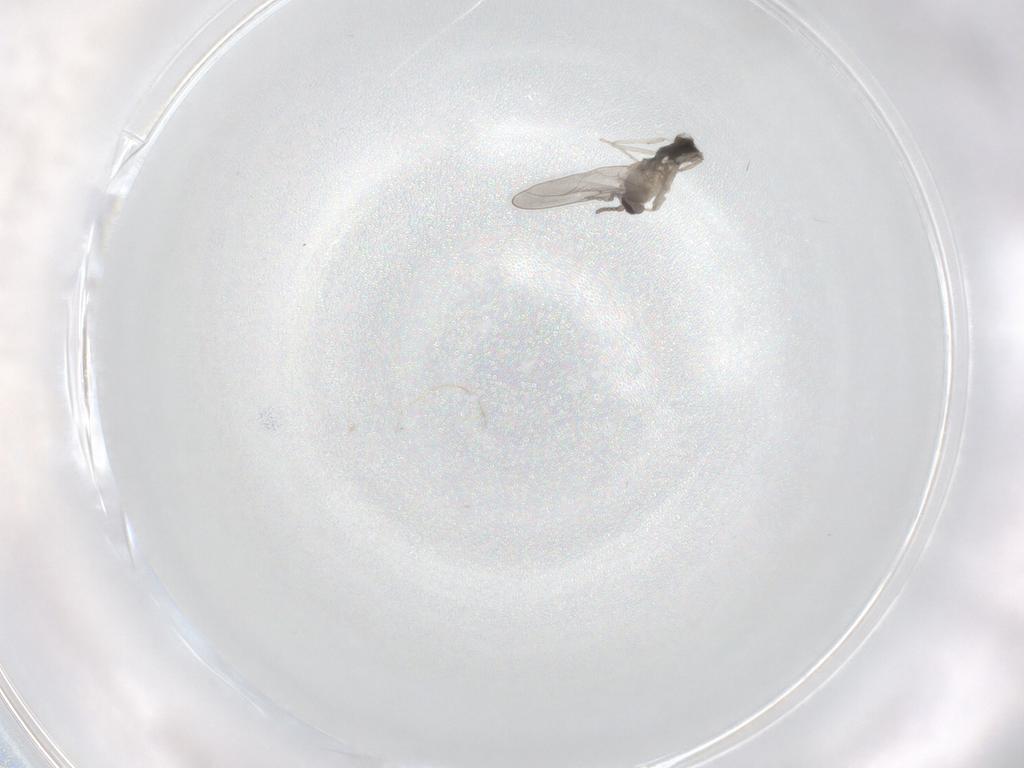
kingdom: Animalia
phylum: Arthropoda
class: Insecta
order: Diptera
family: Cecidomyiidae
